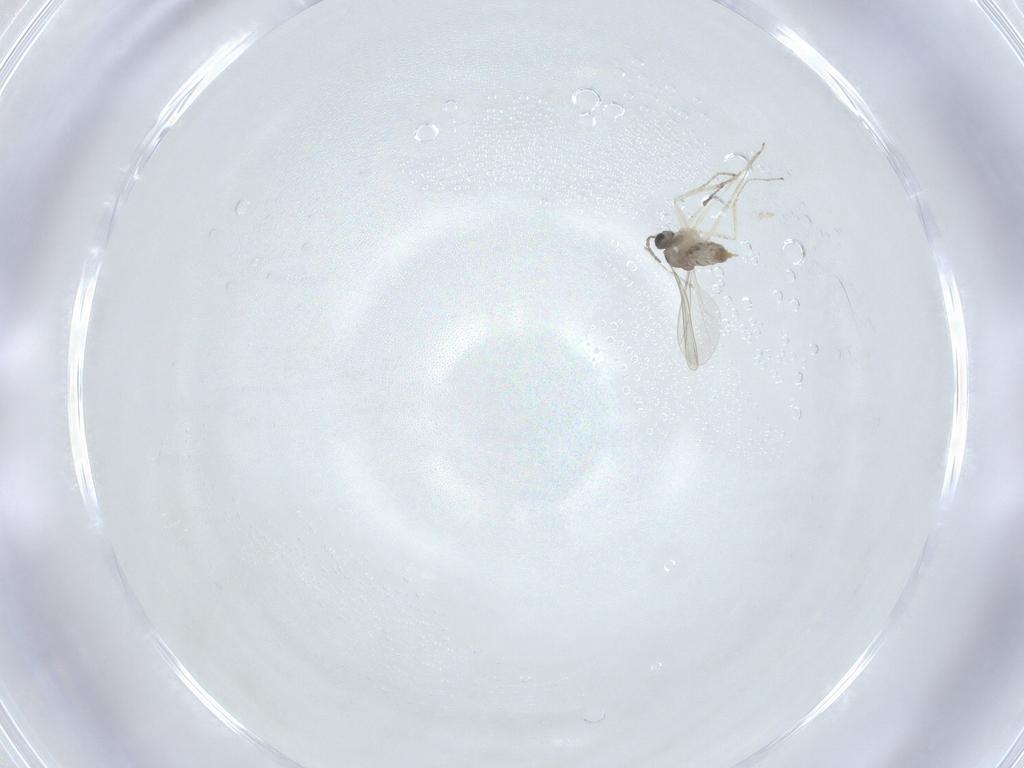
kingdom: Animalia
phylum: Arthropoda
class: Insecta
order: Diptera
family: Cecidomyiidae
